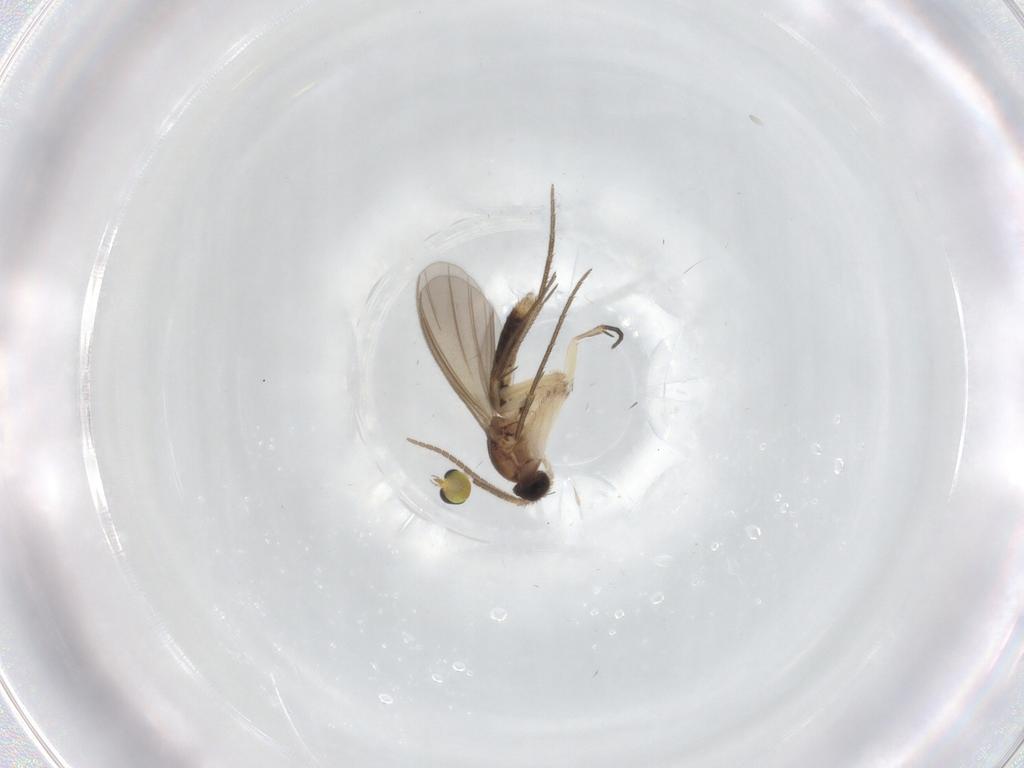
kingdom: Animalia
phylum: Arthropoda
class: Insecta
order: Diptera
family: Mycetophilidae
